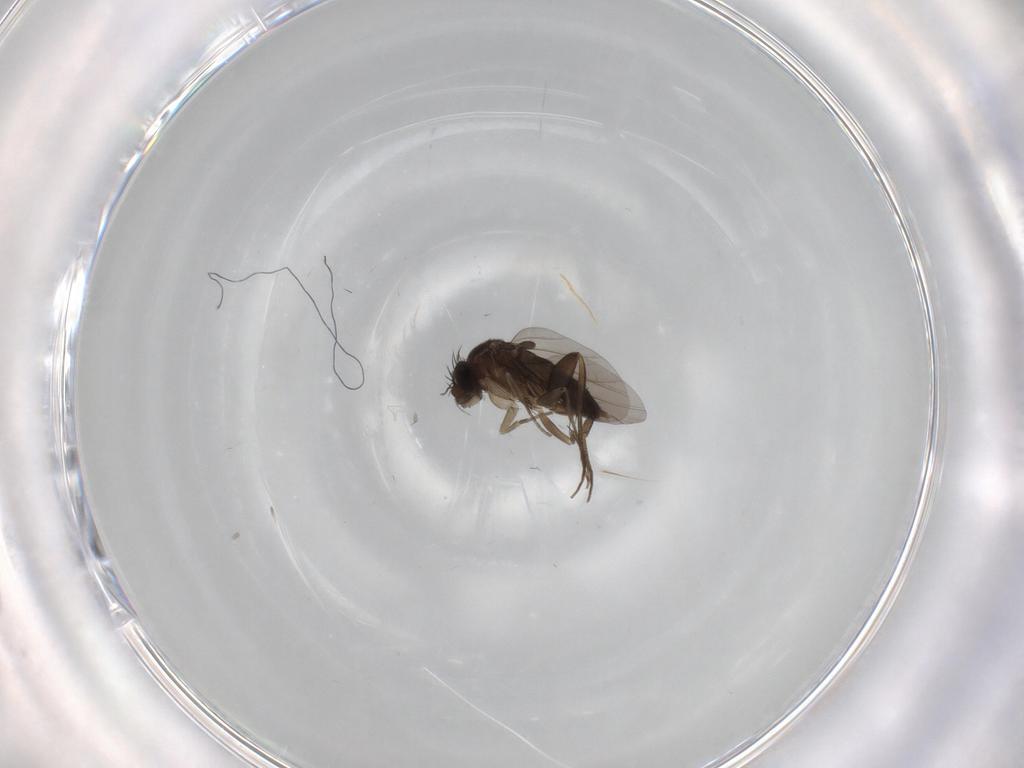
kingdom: Animalia
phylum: Arthropoda
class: Insecta
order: Diptera
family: Phoridae
